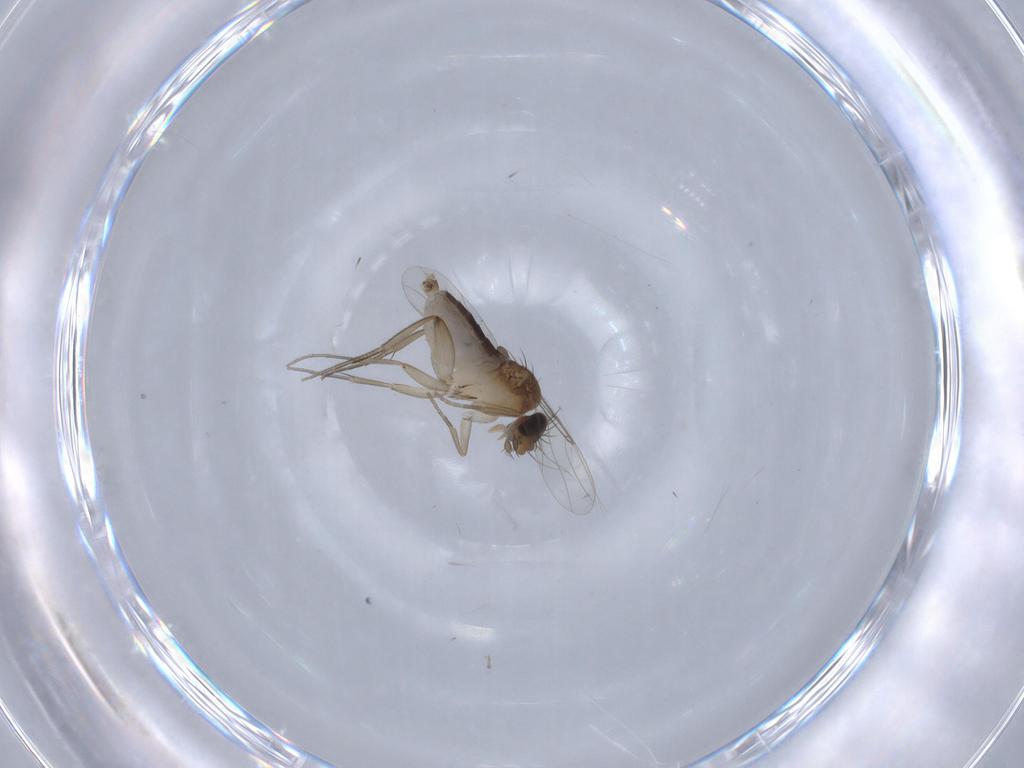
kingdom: Animalia
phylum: Arthropoda
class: Insecta
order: Diptera
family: Phoridae
